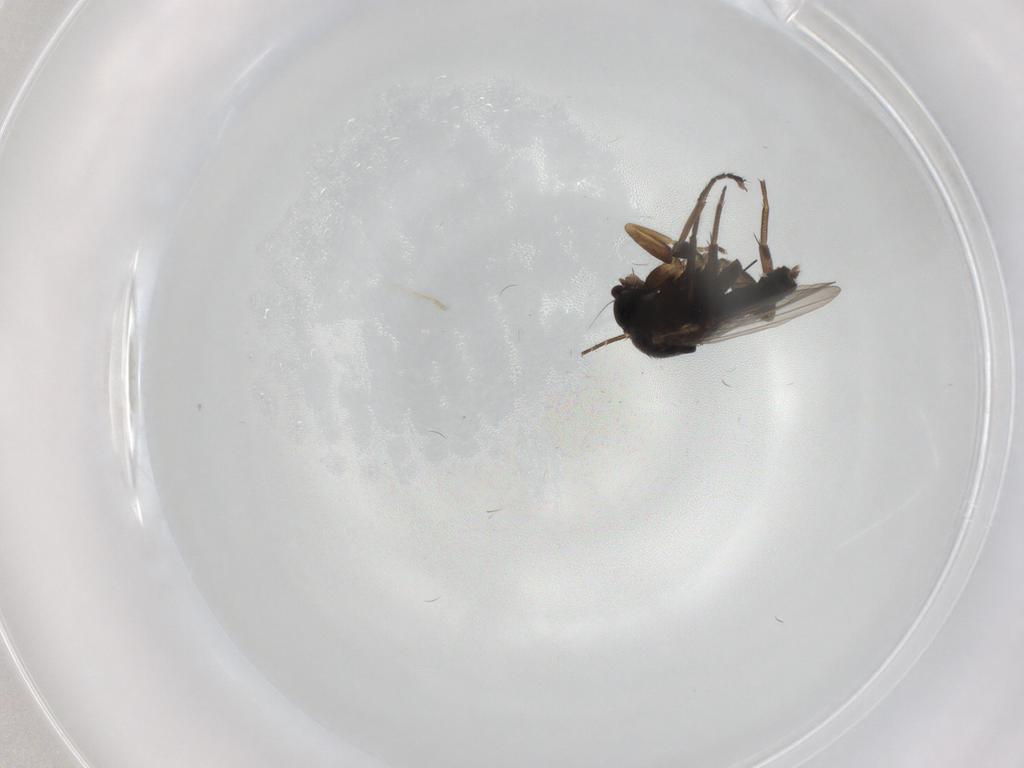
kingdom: Animalia
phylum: Arthropoda
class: Insecta
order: Diptera
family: Phoridae
